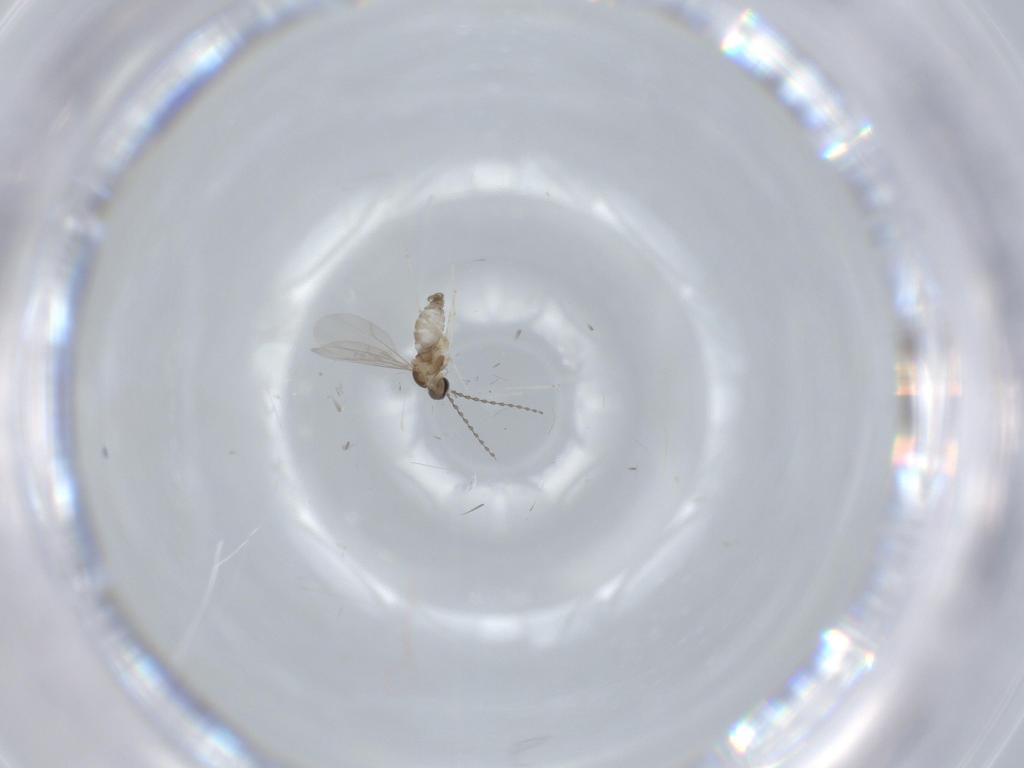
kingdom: Animalia
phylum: Arthropoda
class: Insecta
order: Diptera
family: Cecidomyiidae
